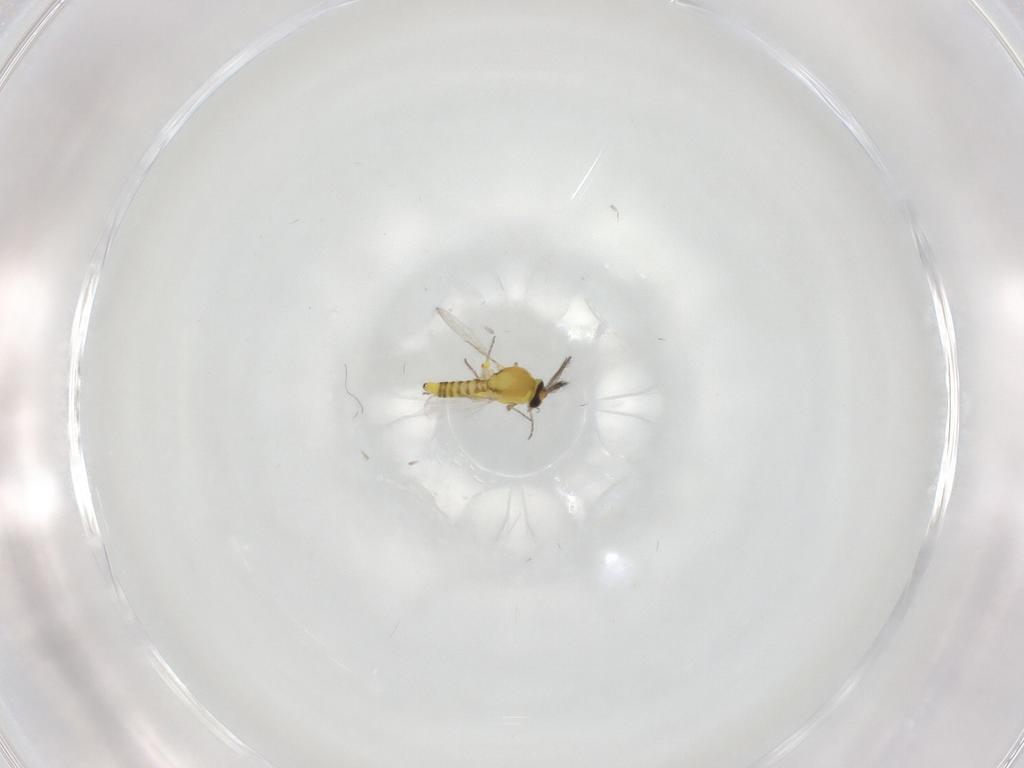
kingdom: Animalia
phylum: Arthropoda
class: Insecta
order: Diptera
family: Ceratopogonidae
